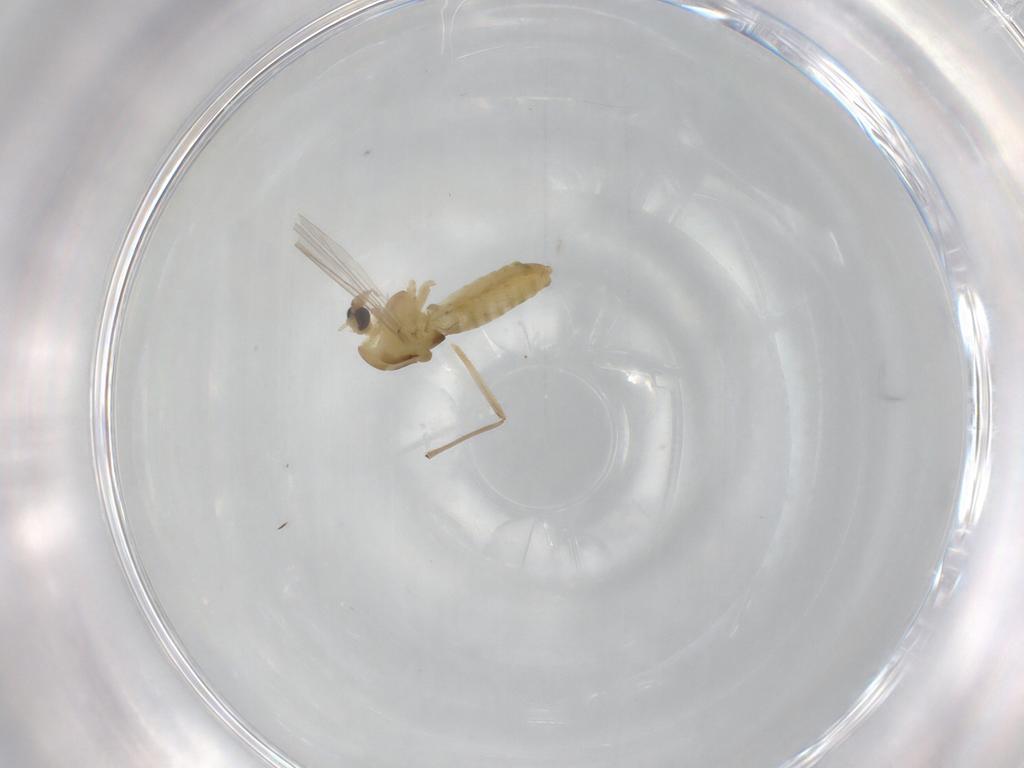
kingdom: Animalia
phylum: Arthropoda
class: Insecta
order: Diptera
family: Chironomidae
